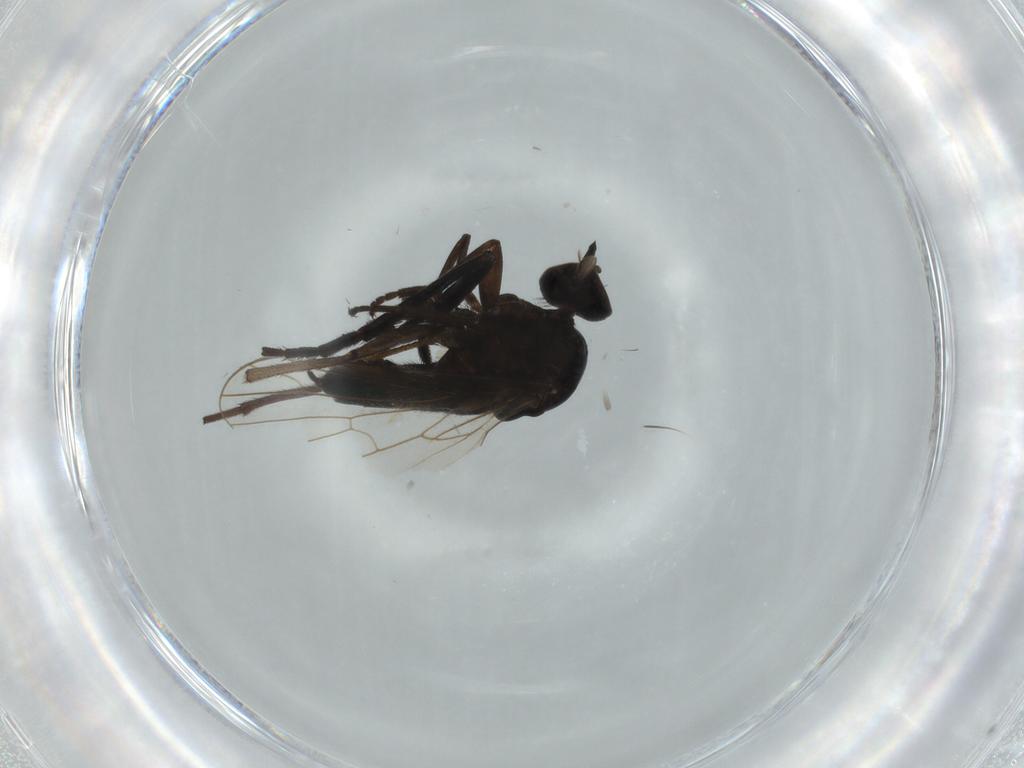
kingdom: Animalia
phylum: Arthropoda
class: Insecta
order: Diptera
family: Empididae
